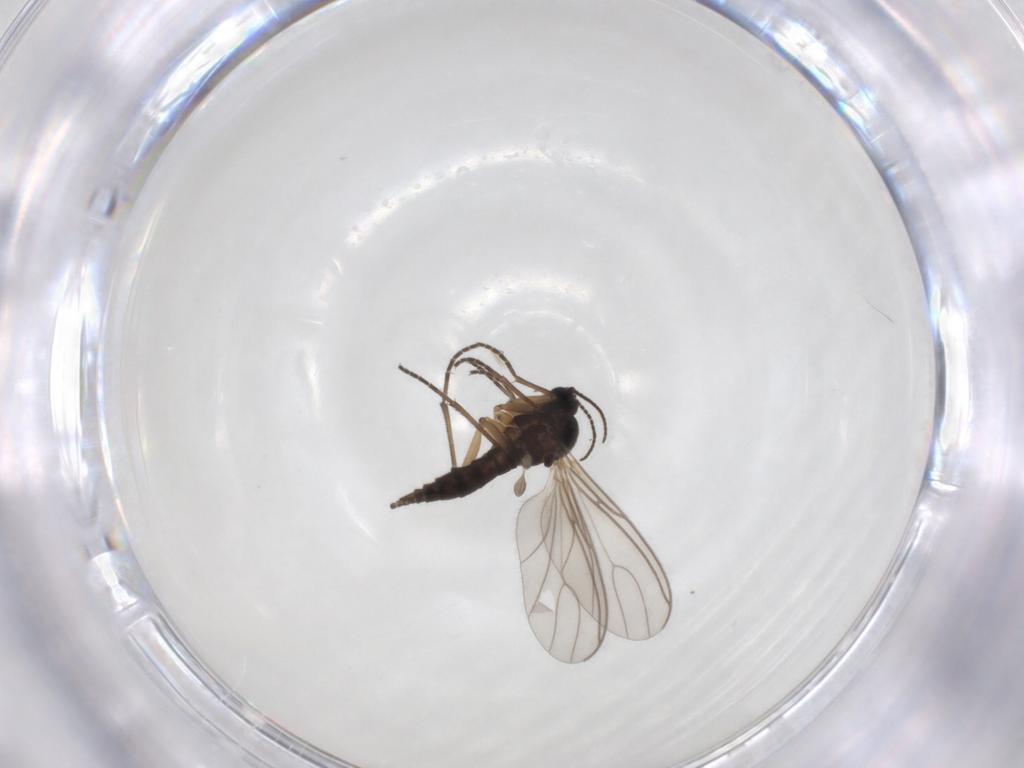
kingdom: Animalia
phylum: Arthropoda
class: Insecta
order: Diptera
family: Sciaridae
